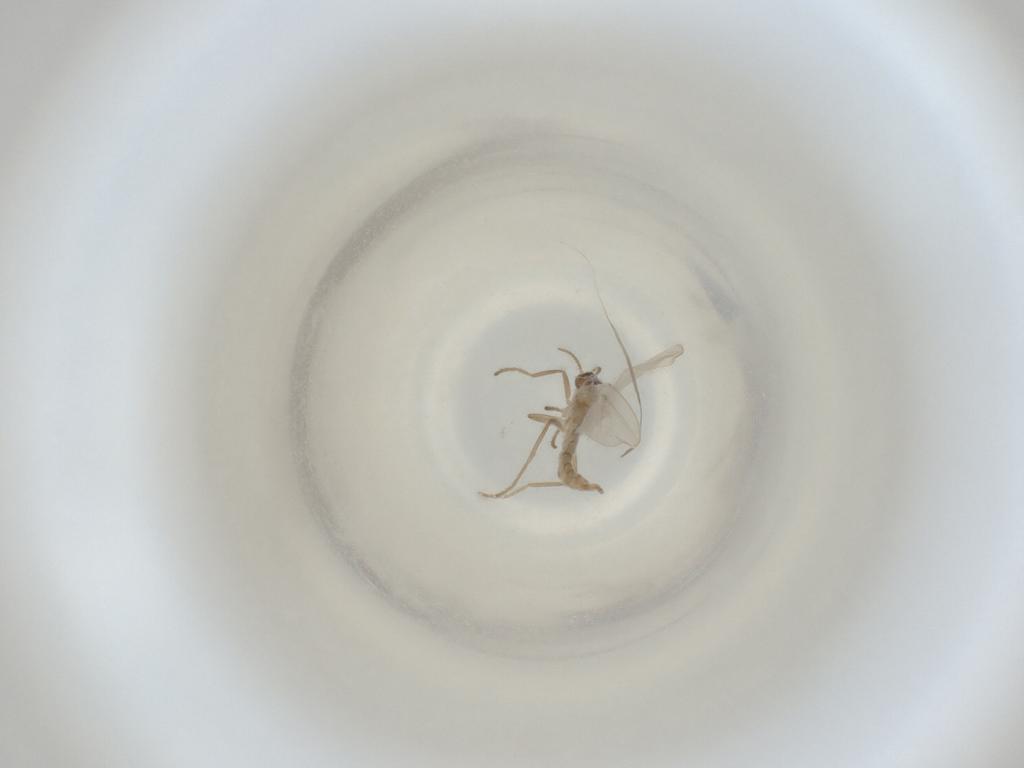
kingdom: Animalia
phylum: Arthropoda
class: Insecta
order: Diptera
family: Cecidomyiidae
